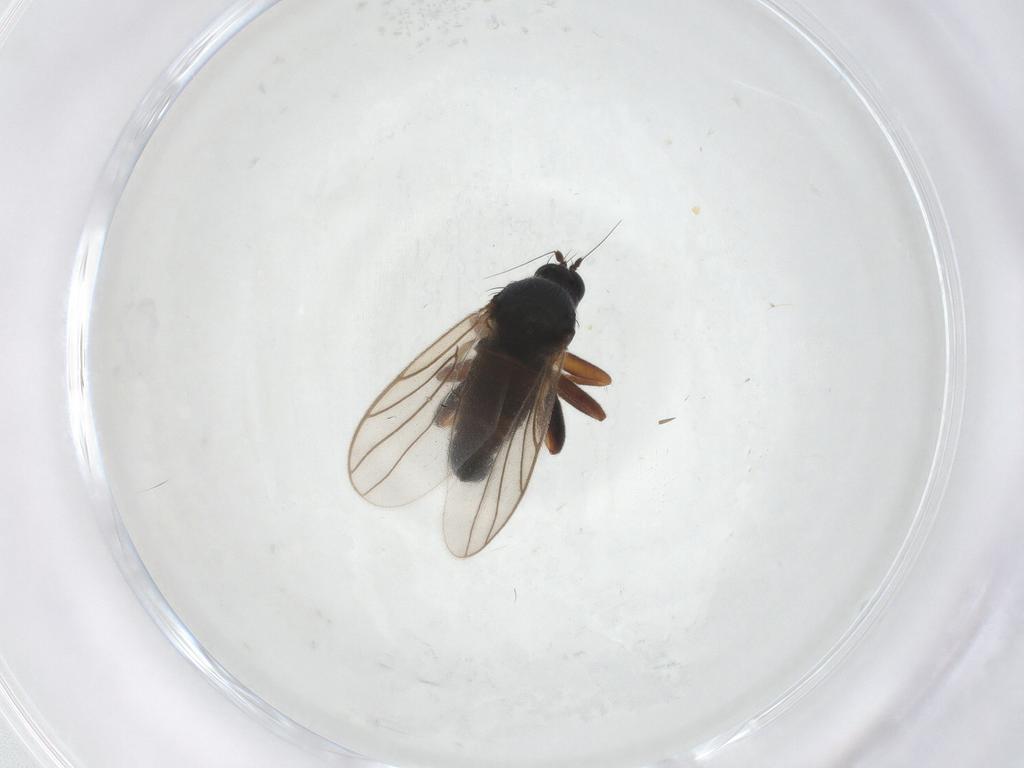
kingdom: Animalia
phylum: Arthropoda
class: Insecta
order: Diptera
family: Hybotidae
